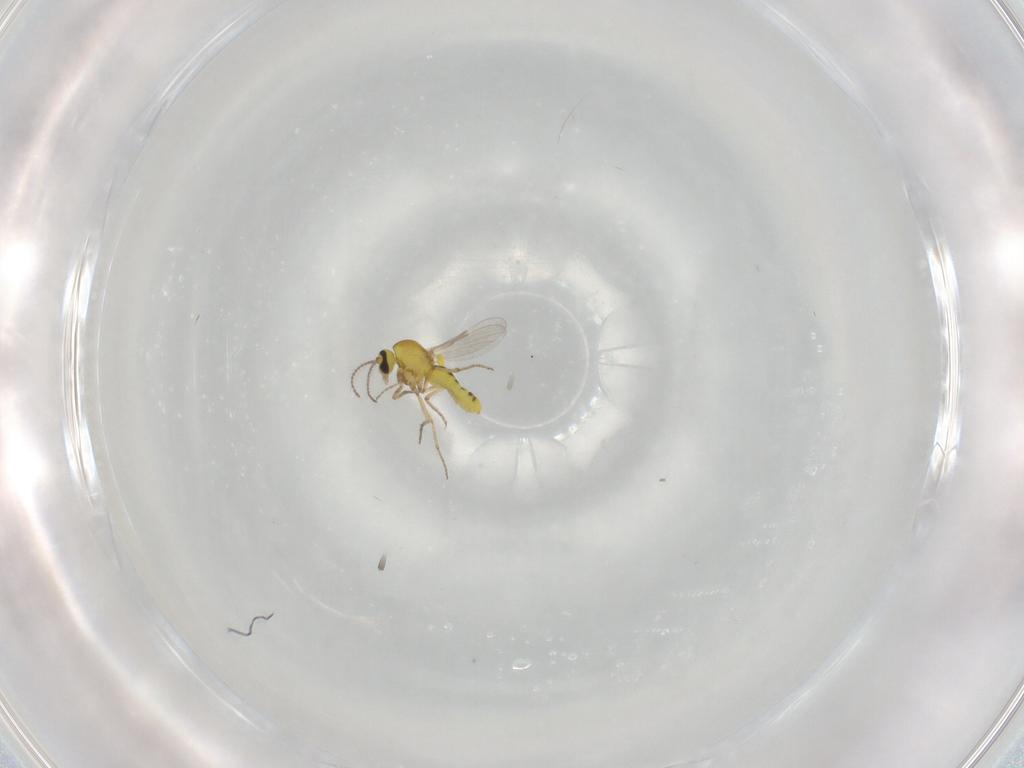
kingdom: Animalia
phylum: Arthropoda
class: Insecta
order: Diptera
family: Ceratopogonidae
